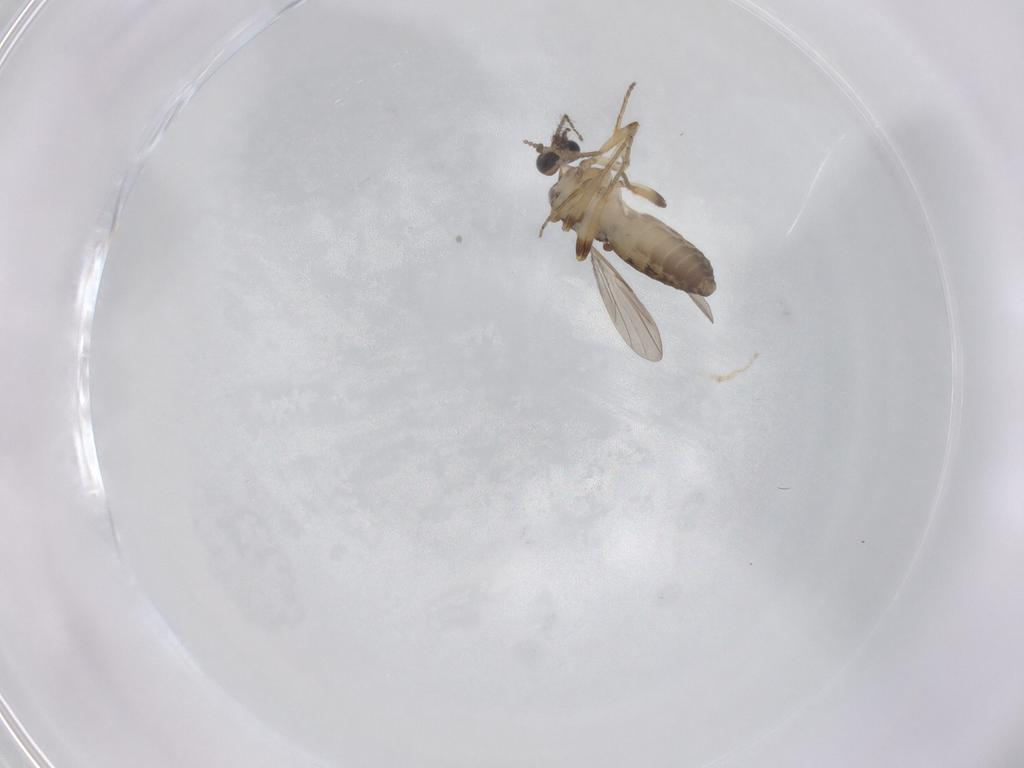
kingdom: Animalia
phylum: Arthropoda
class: Insecta
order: Diptera
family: Ceratopogonidae
